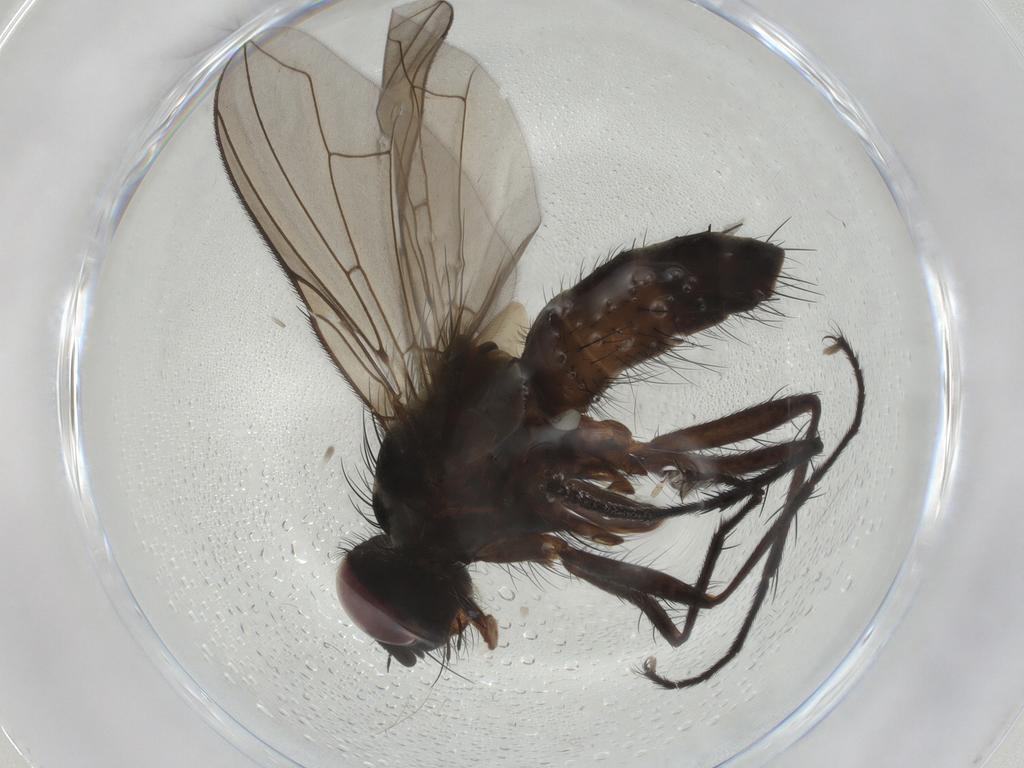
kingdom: Animalia
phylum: Arthropoda
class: Insecta
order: Diptera
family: Muscidae
